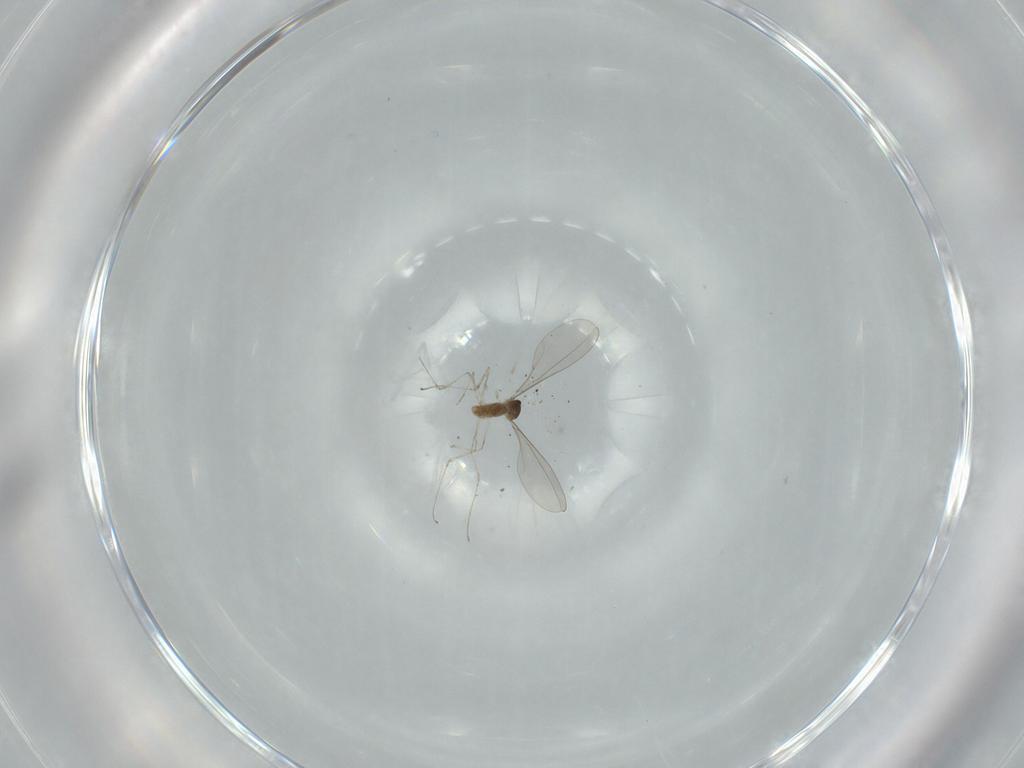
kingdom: Animalia
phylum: Arthropoda
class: Insecta
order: Diptera
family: Cecidomyiidae
